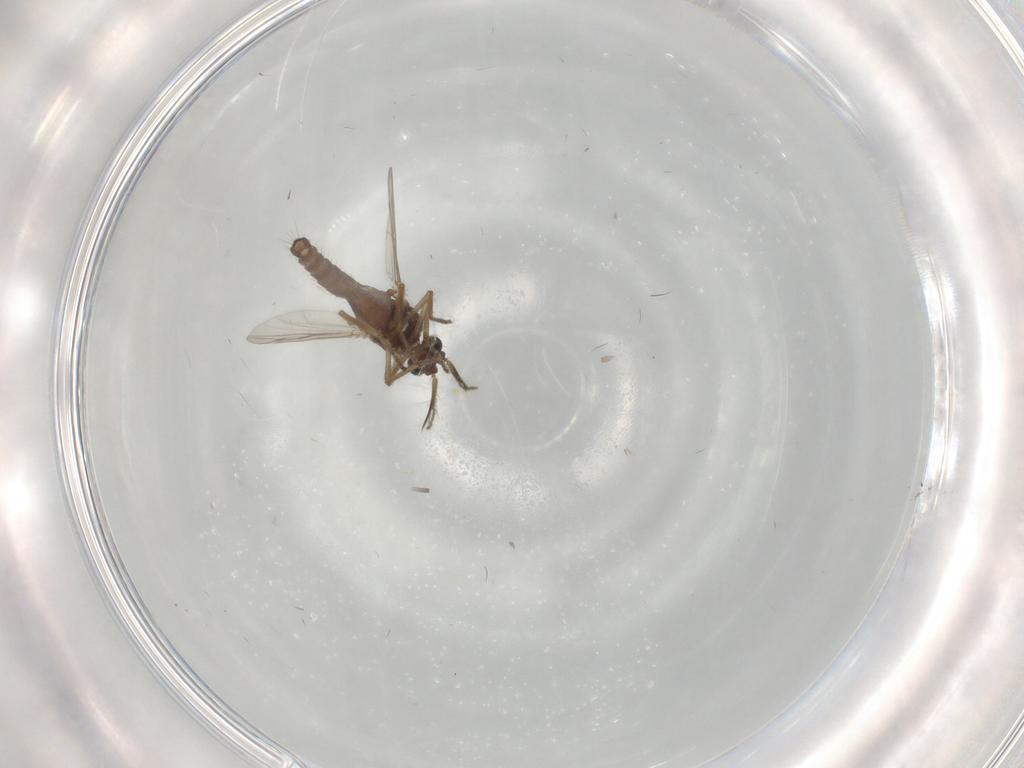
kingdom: Animalia
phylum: Arthropoda
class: Insecta
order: Diptera
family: Ceratopogonidae
